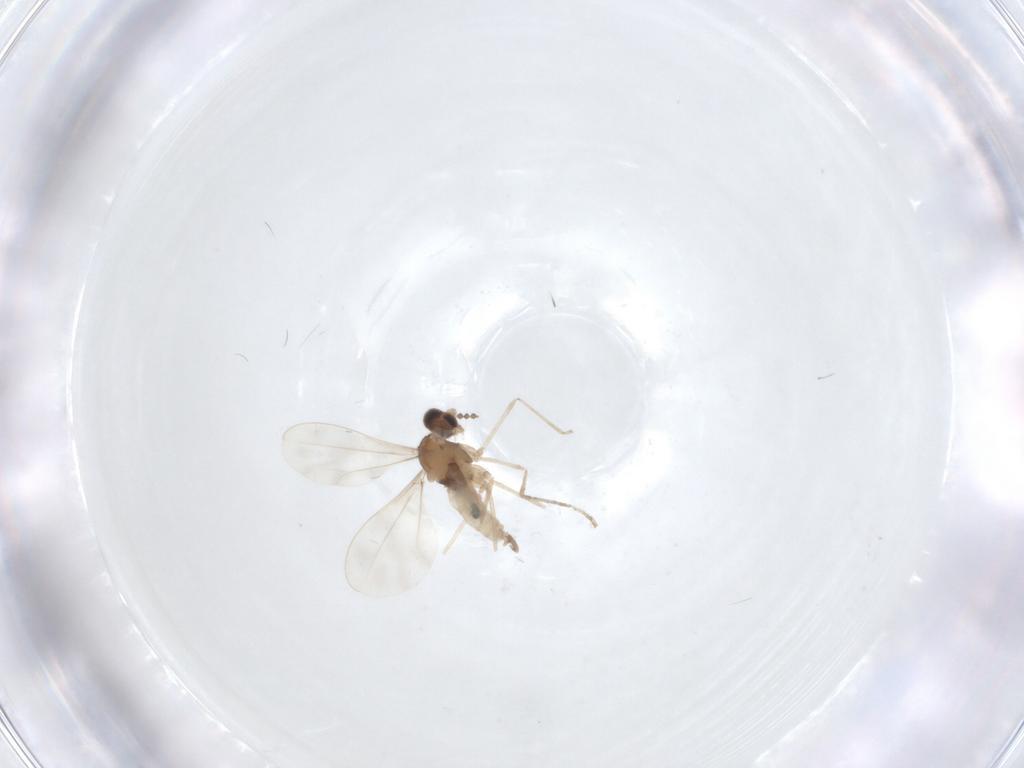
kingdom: Animalia
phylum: Arthropoda
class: Insecta
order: Diptera
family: Cecidomyiidae
